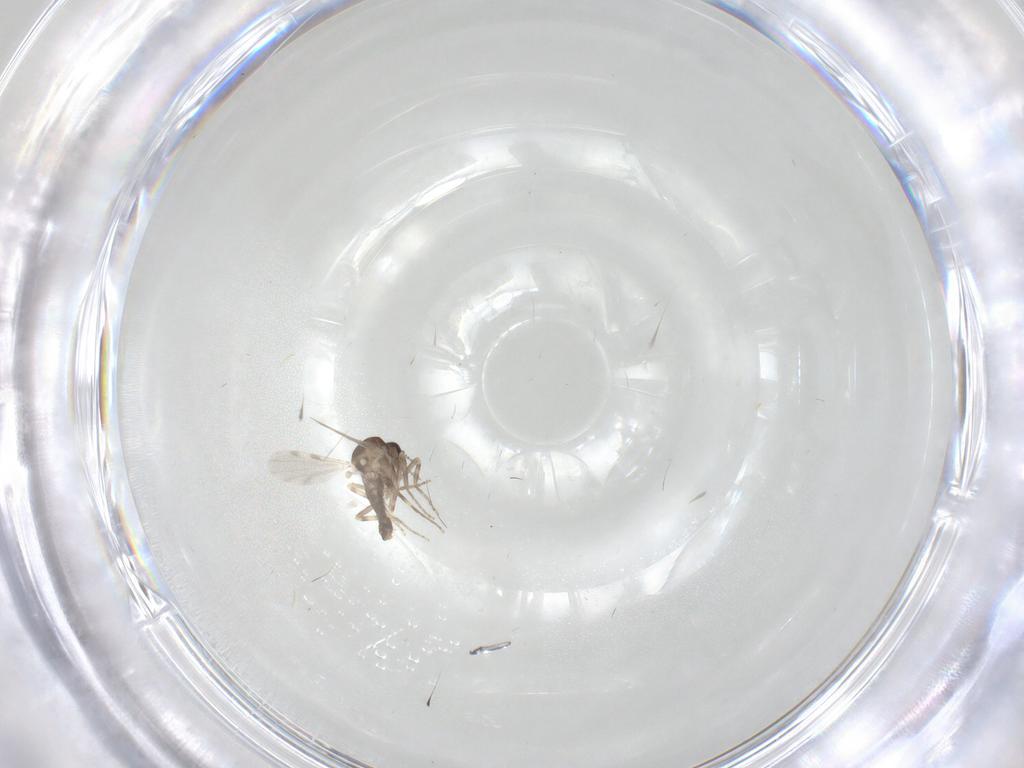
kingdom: Animalia
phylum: Arthropoda
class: Insecta
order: Diptera
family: Ceratopogonidae
